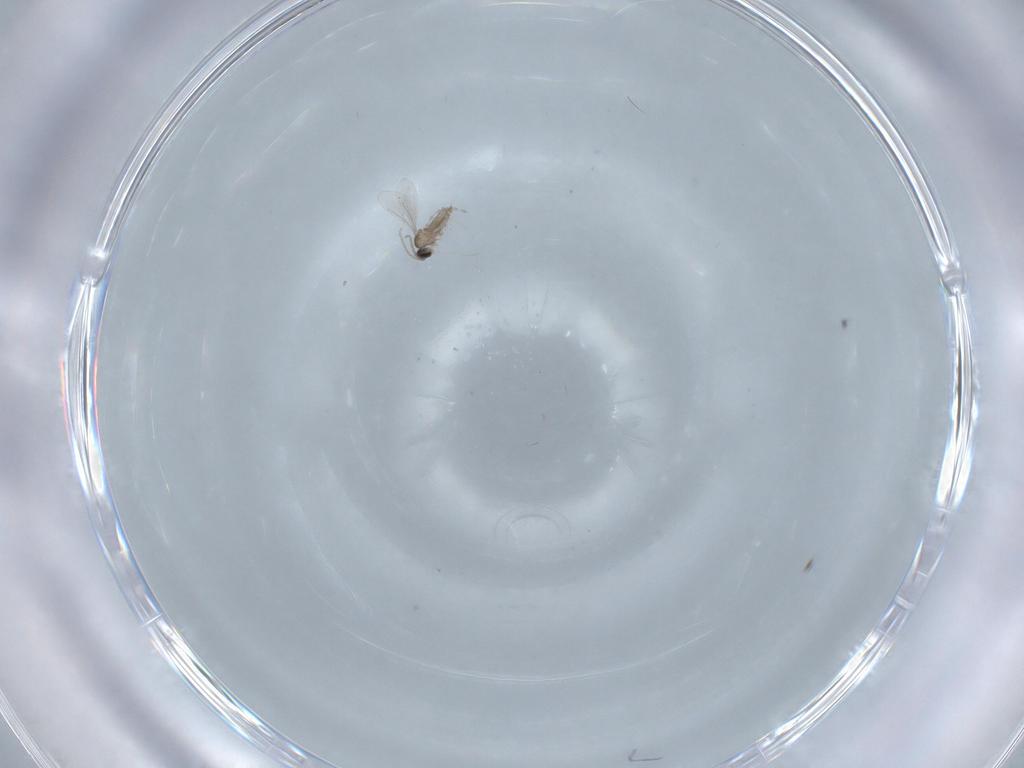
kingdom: Animalia
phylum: Arthropoda
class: Insecta
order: Diptera
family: Cecidomyiidae
